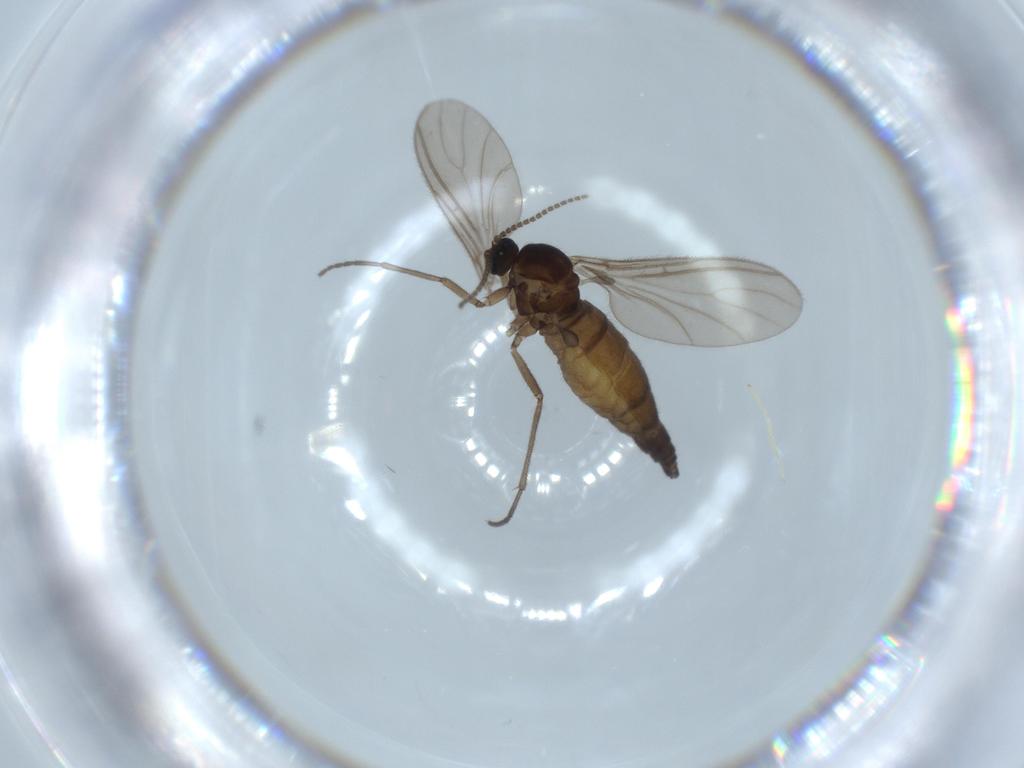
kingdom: Animalia
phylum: Arthropoda
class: Insecta
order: Diptera
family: Sciaridae
